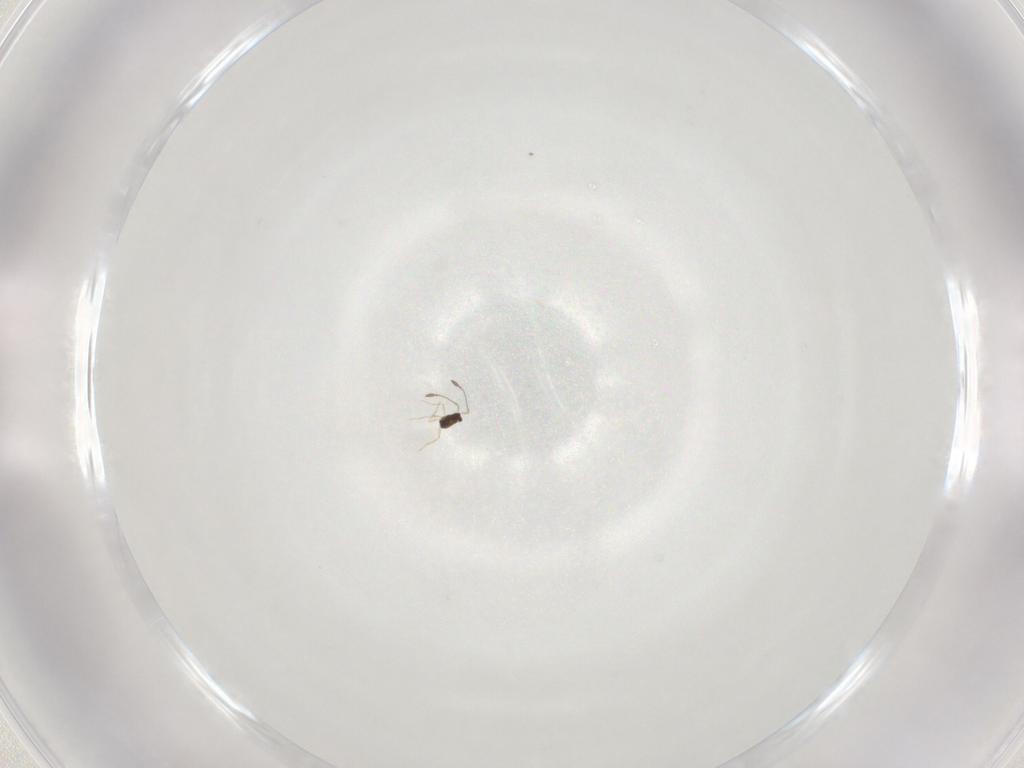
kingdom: Animalia
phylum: Arthropoda
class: Insecta
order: Hymenoptera
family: Mymaridae
